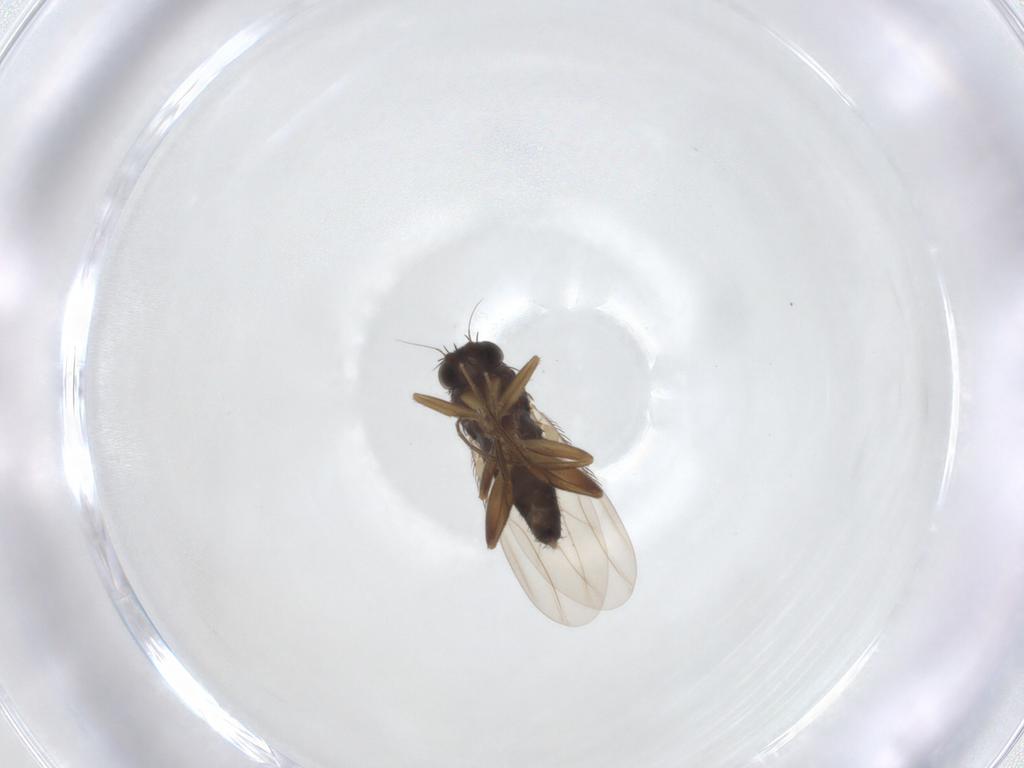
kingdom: Animalia
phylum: Arthropoda
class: Insecta
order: Diptera
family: Phoridae
